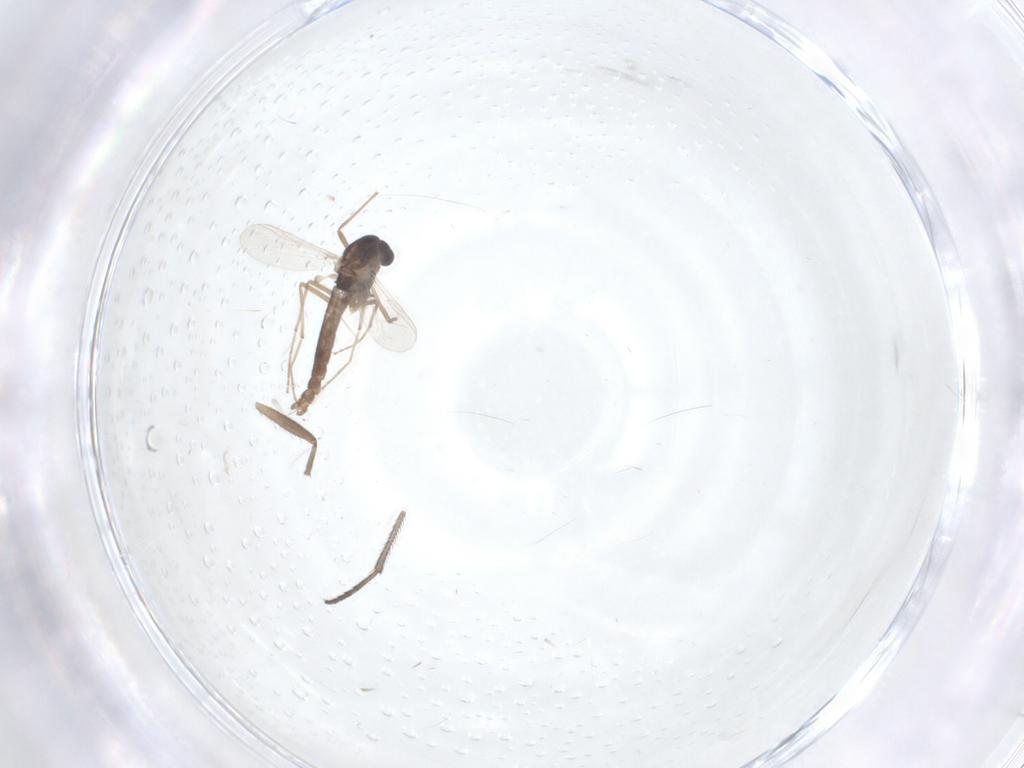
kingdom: Animalia
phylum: Arthropoda
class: Insecta
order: Diptera
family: Chironomidae
